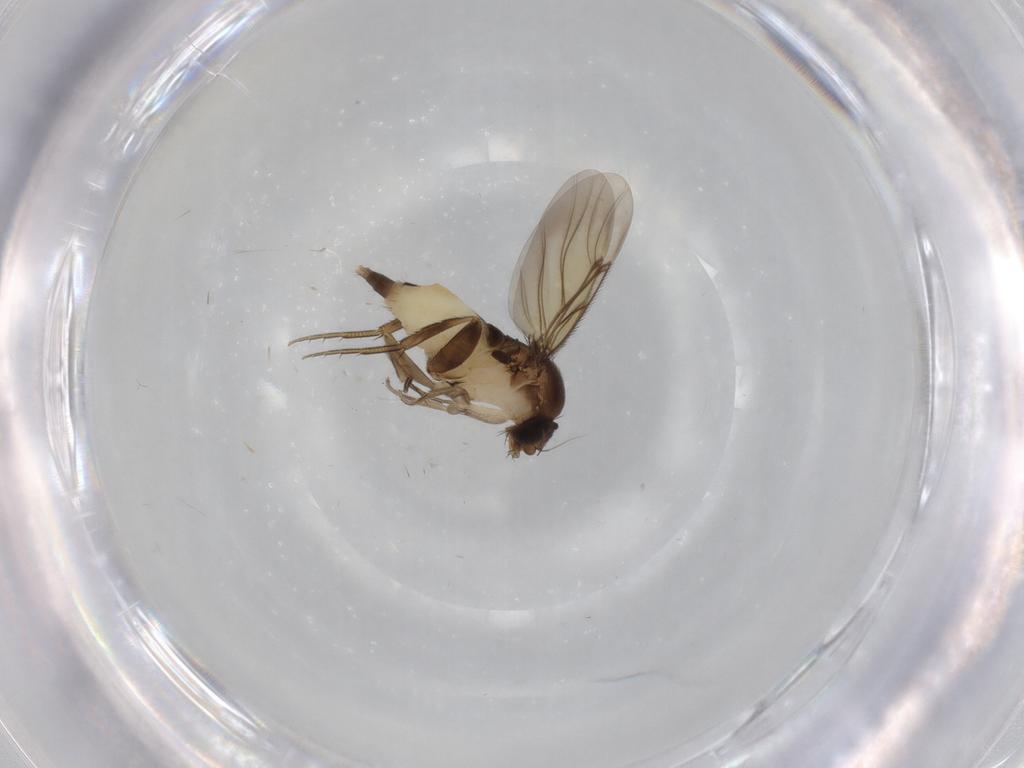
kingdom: Animalia
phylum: Arthropoda
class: Insecta
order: Diptera
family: Phoridae
